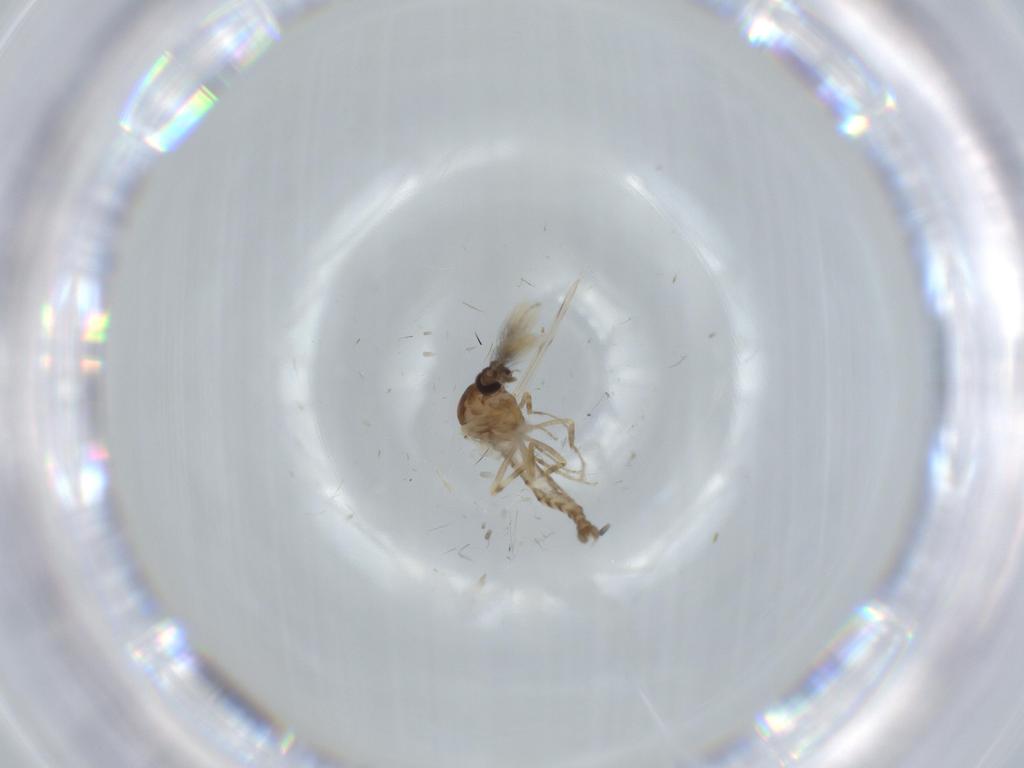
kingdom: Animalia
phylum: Arthropoda
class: Insecta
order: Diptera
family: Ceratopogonidae
